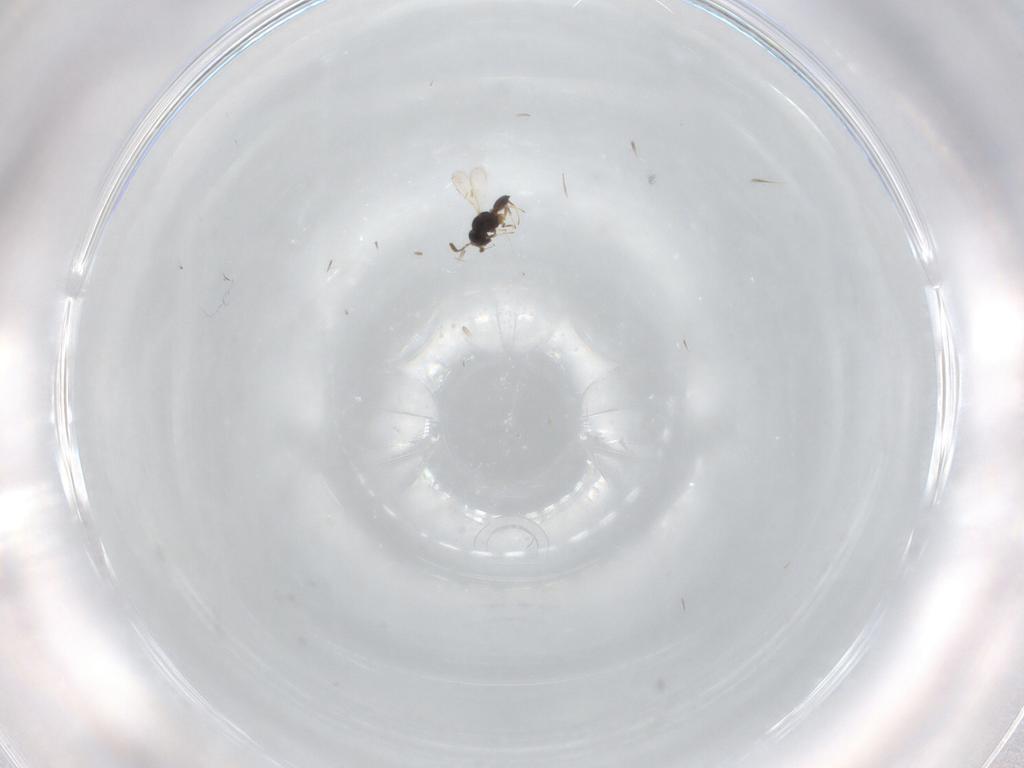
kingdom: Animalia
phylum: Arthropoda
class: Insecta
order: Hymenoptera
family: Scelionidae
